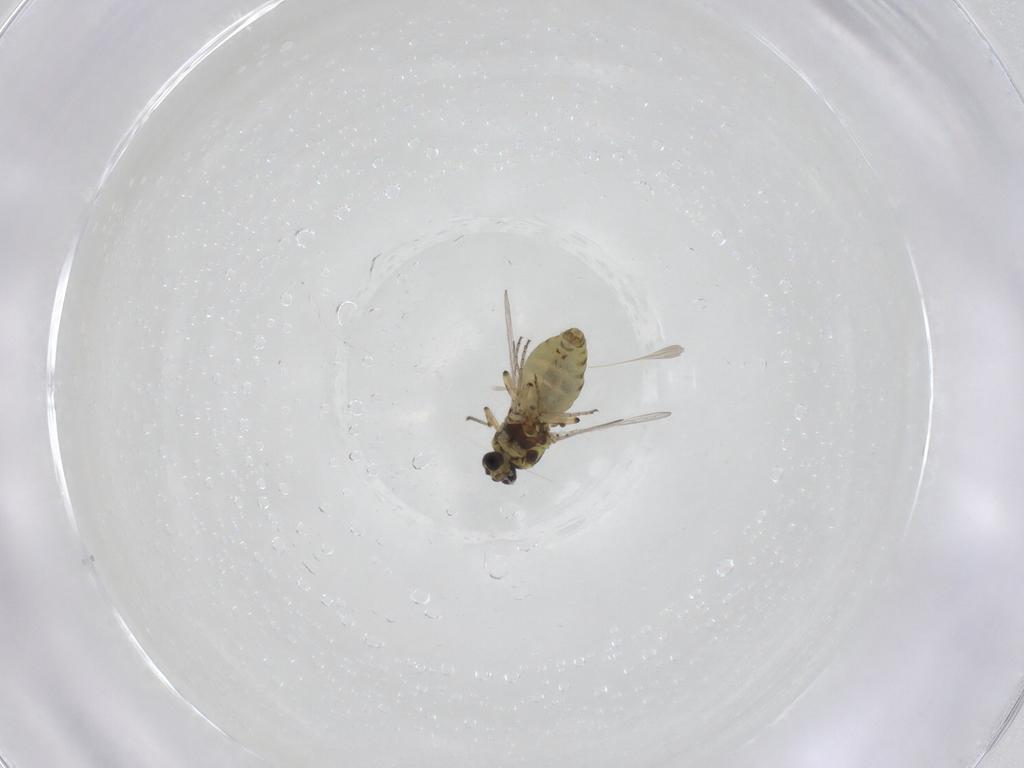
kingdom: Animalia
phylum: Arthropoda
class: Insecta
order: Diptera
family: Ceratopogonidae
